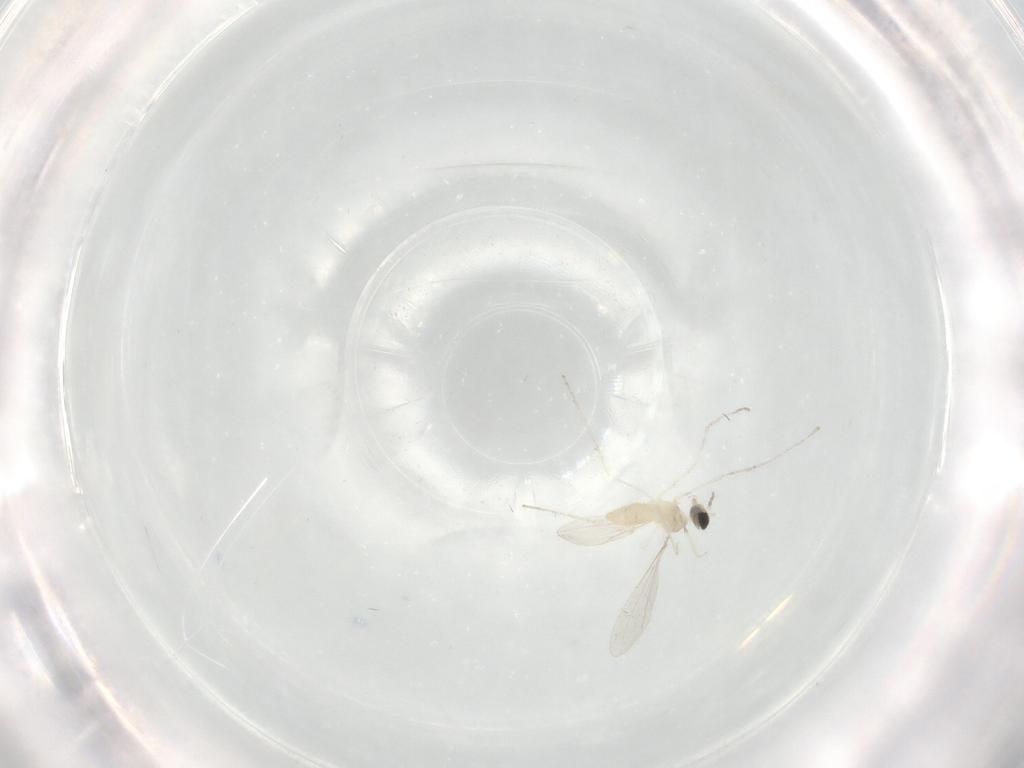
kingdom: Animalia
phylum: Arthropoda
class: Insecta
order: Diptera
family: Cecidomyiidae
